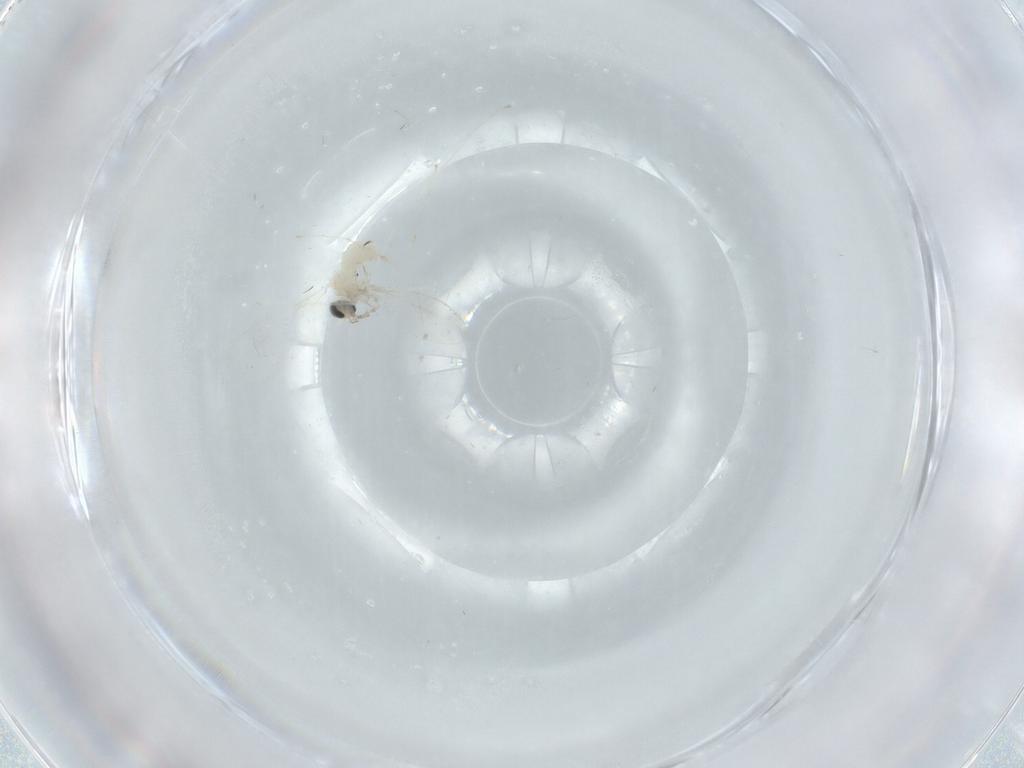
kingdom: Animalia
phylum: Arthropoda
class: Insecta
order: Diptera
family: Cecidomyiidae
